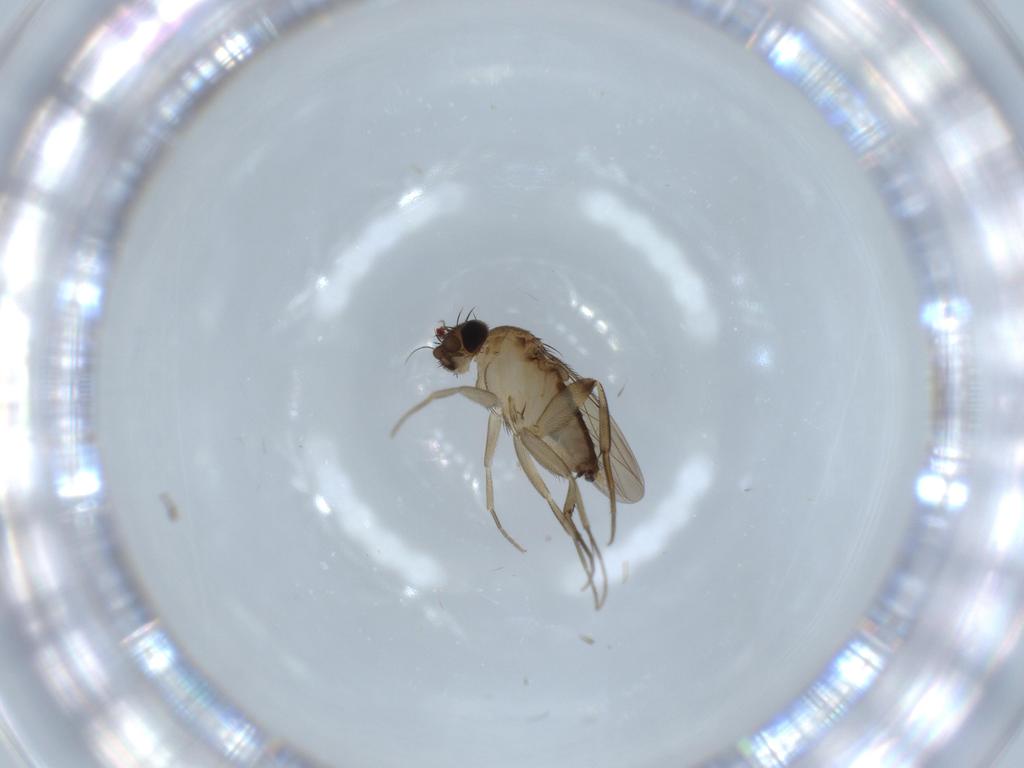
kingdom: Animalia
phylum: Arthropoda
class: Insecta
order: Diptera
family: Phoridae
